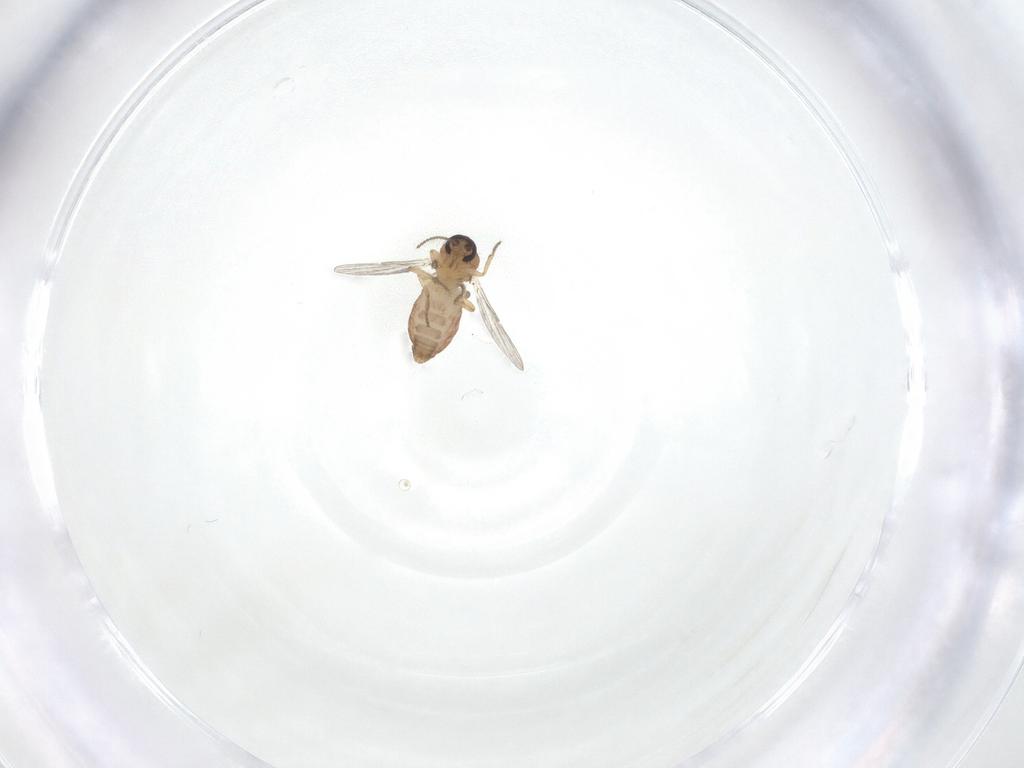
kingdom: Animalia
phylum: Arthropoda
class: Insecta
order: Diptera
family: Ceratopogonidae
